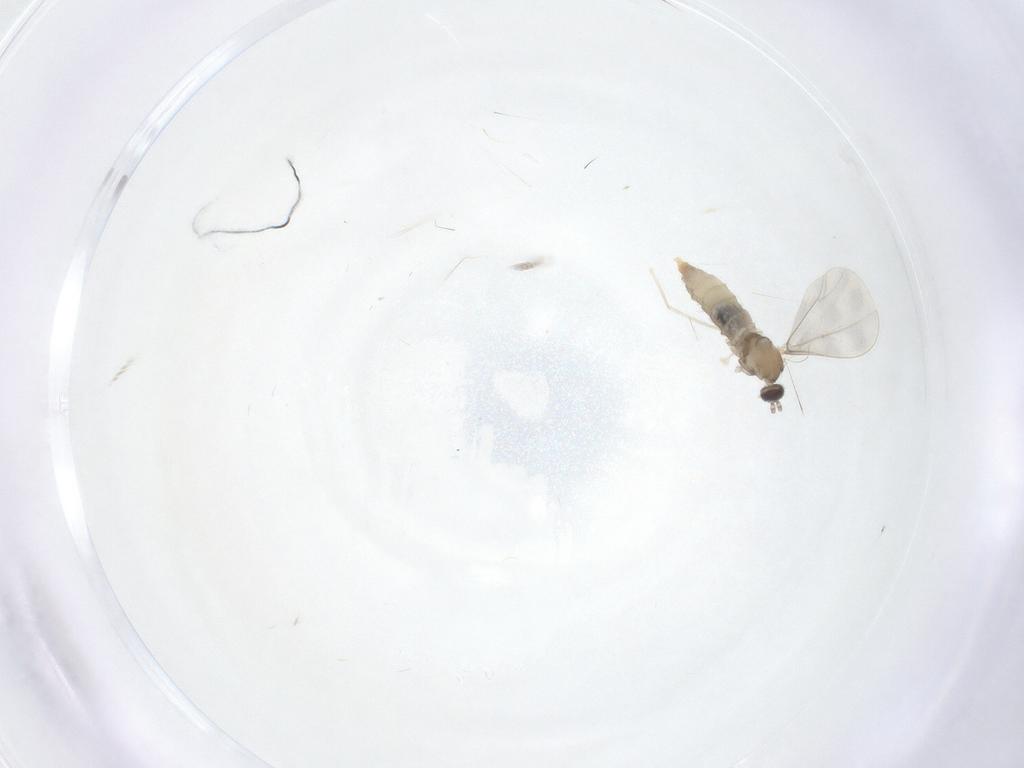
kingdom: Animalia
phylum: Arthropoda
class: Insecta
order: Diptera
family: Cecidomyiidae
